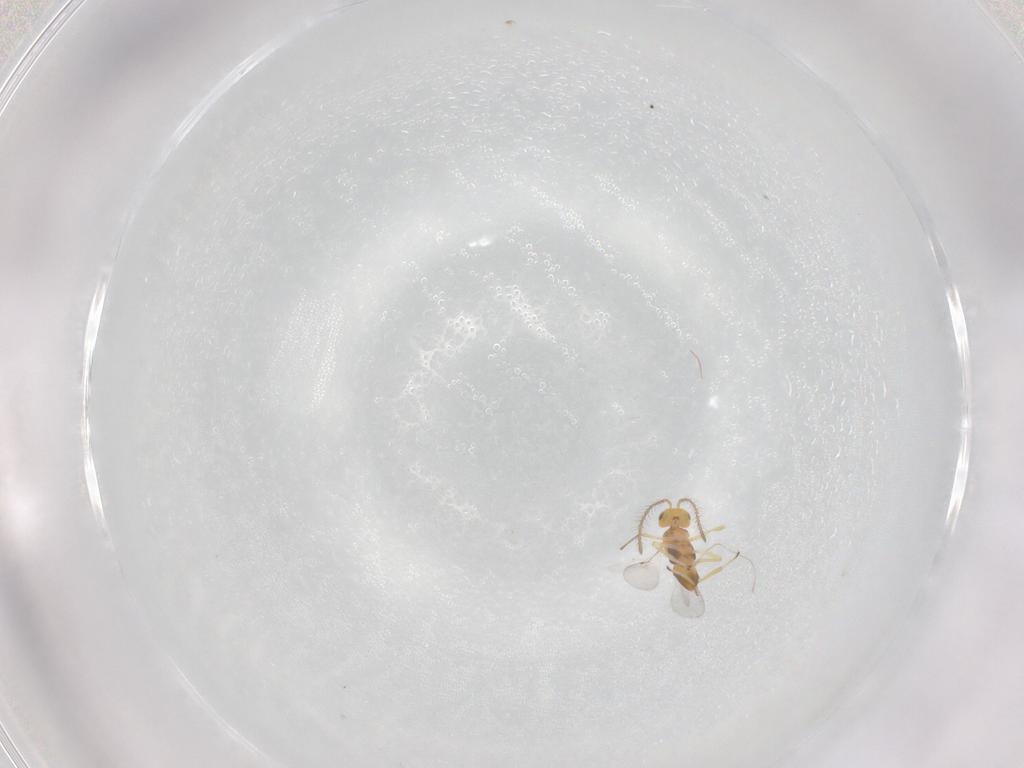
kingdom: Animalia
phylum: Arthropoda
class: Insecta
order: Hymenoptera
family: Encyrtidae
